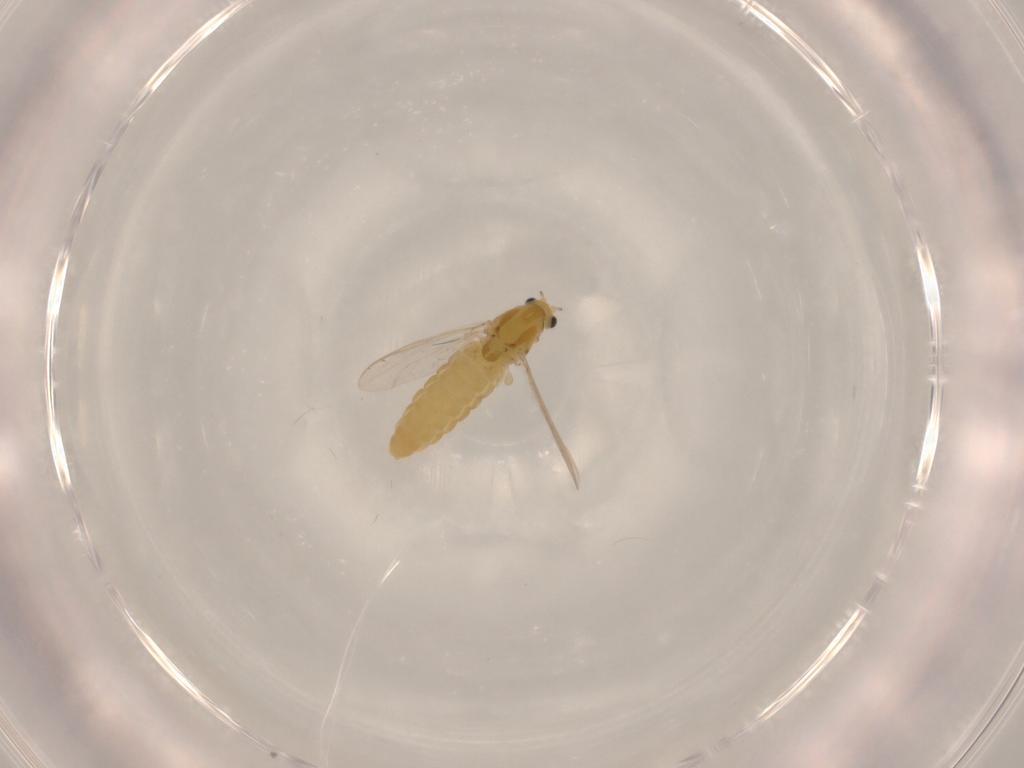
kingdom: Animalia
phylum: Arthropoda
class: Insecta
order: Diptera
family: Chironomidae
